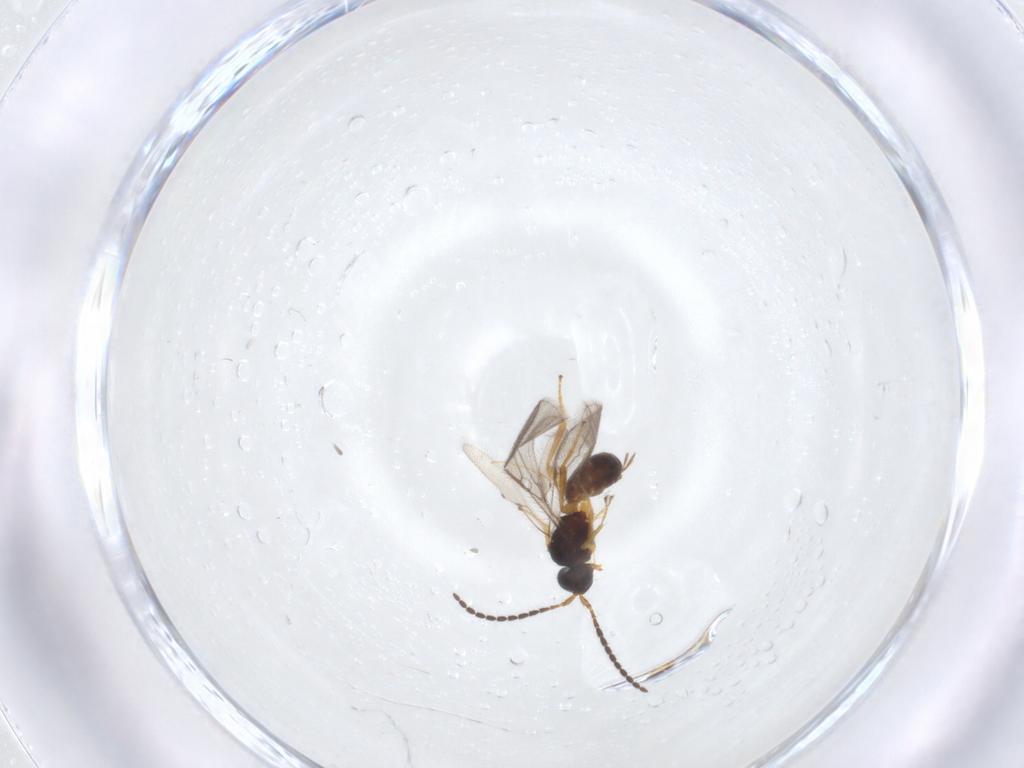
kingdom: Animalia
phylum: Arthropoda
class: Insecta
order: Hymenoptera
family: Braconidae
